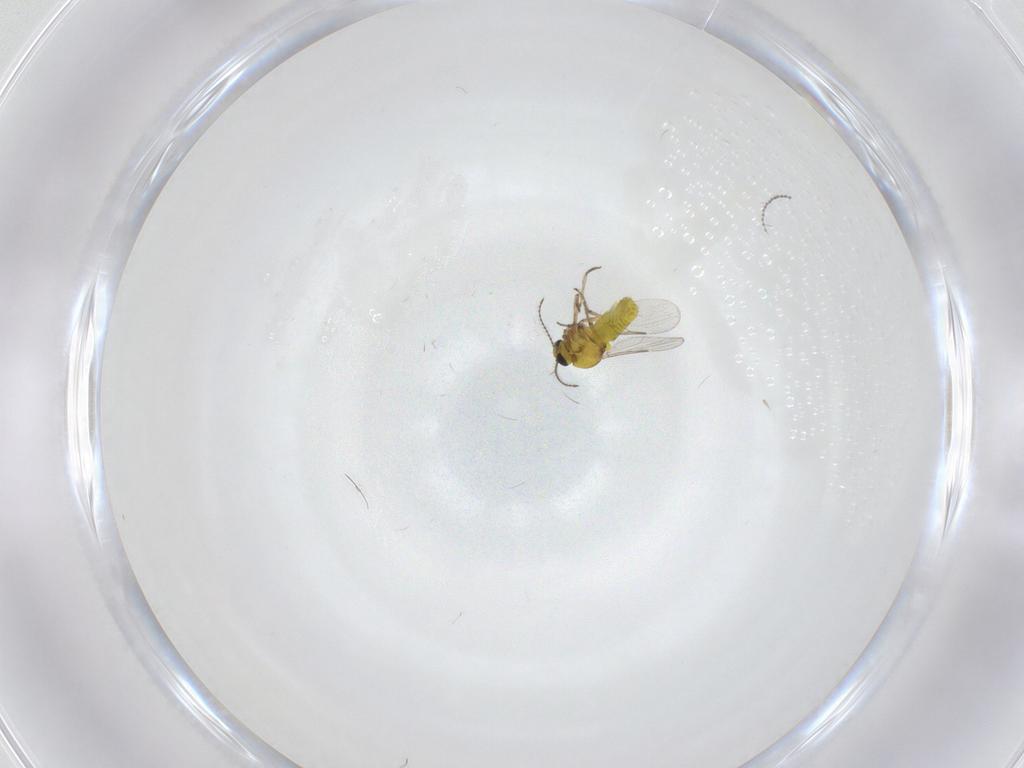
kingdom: Animalia
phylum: Arthropoda
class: Insecta
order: Diptera
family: Ceratopogonidae
